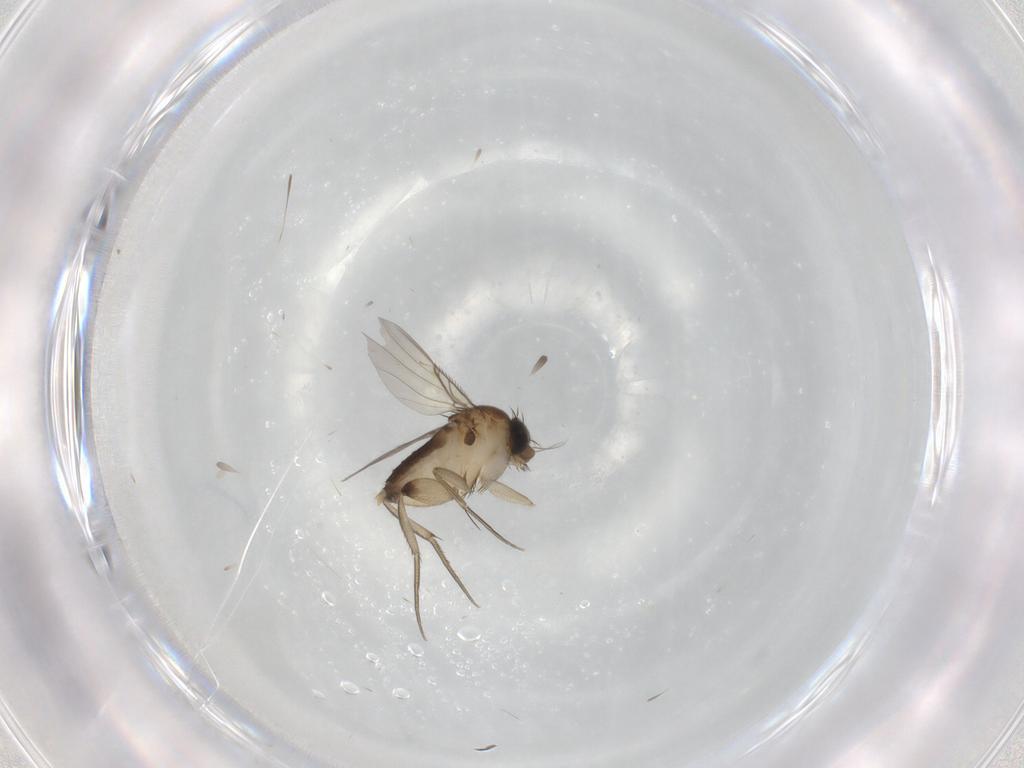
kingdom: Animalia
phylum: Arthropoda
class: Insecta
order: Diptera
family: Phoridae
